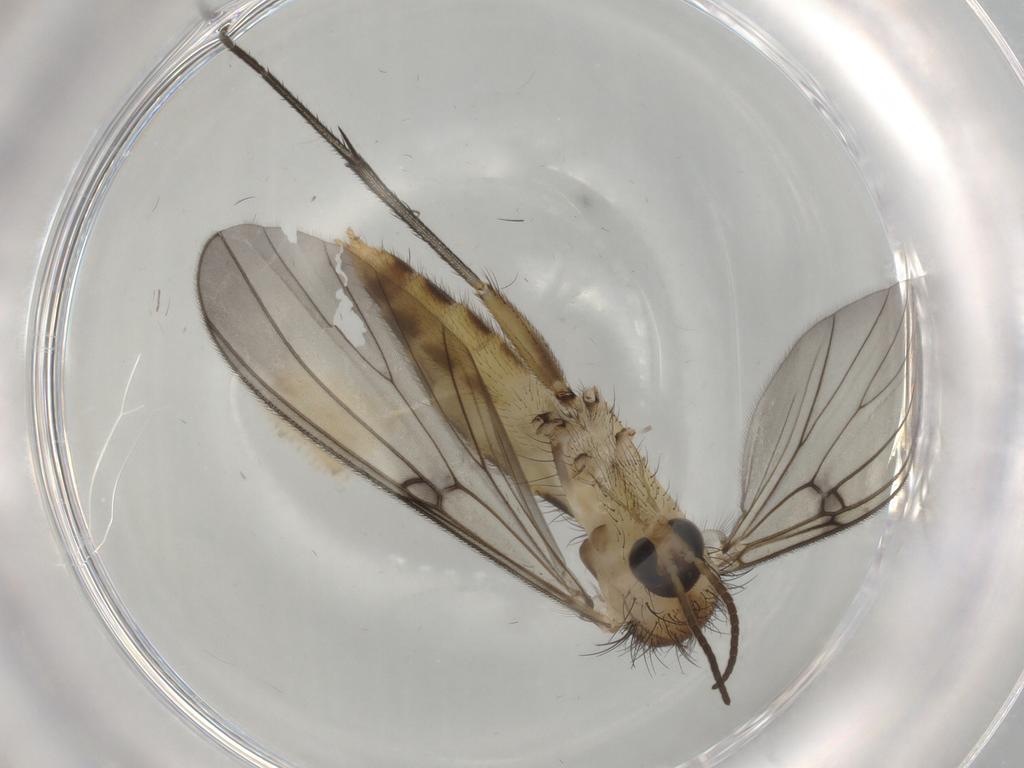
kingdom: Animalia
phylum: Arthropoda
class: Insecta
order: Diptera
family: Mycetophilidae
